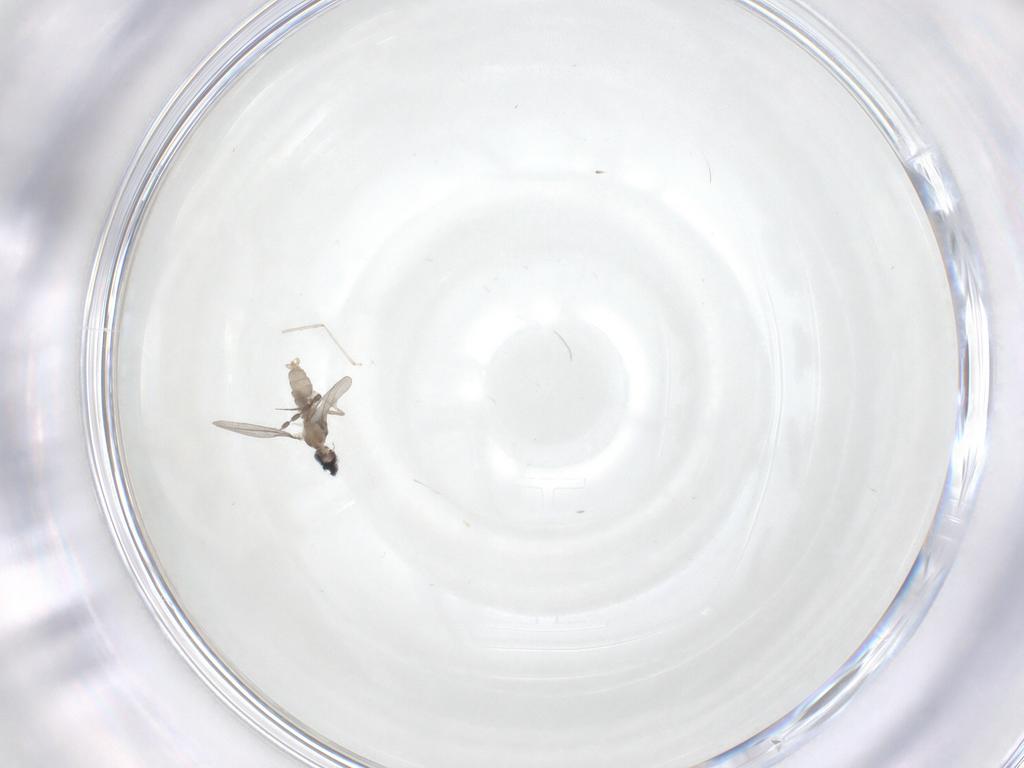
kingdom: Animalia
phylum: Arthropoda
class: Insecta
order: Diptera
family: Cecidomyiidae
